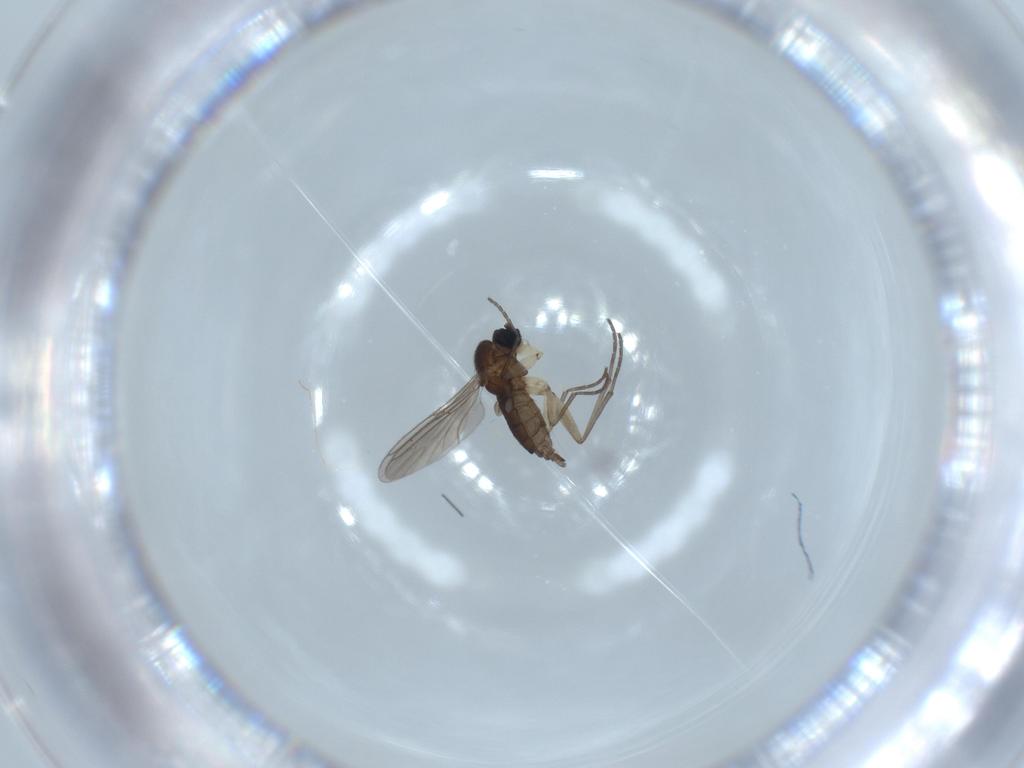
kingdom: Animalia
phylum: Arthropoda
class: Insecta
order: Diptera
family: Sciaridae
